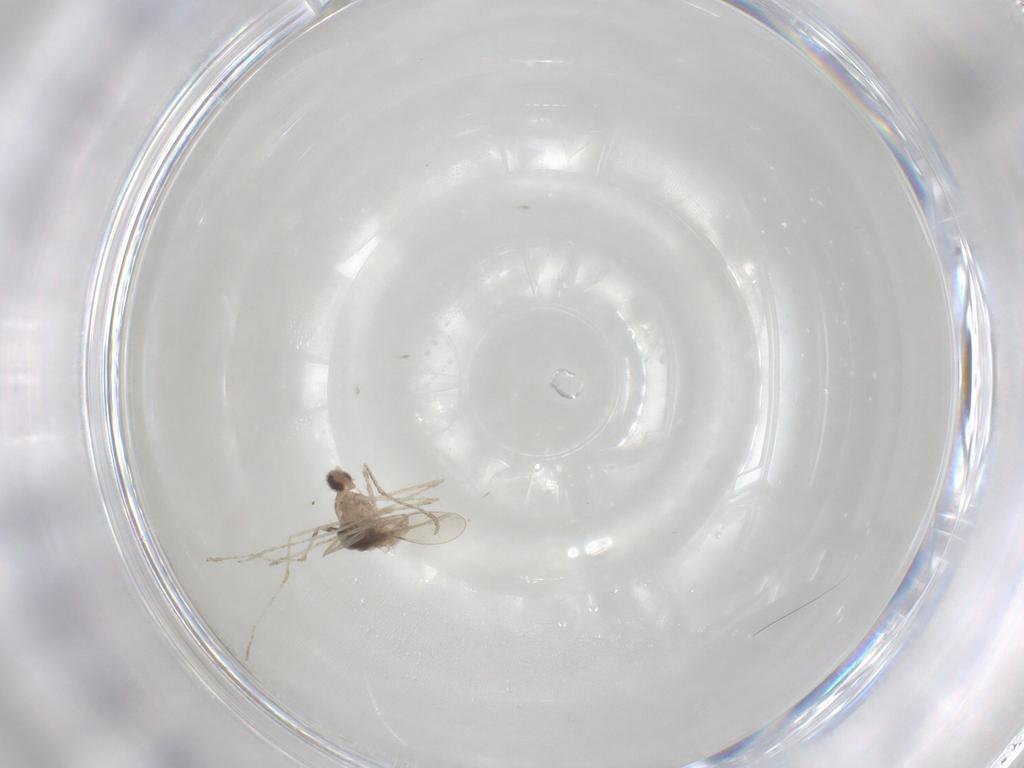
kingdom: Animalia
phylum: Arthropoda
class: Insecta
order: Diptera
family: Cecidomyiidae
